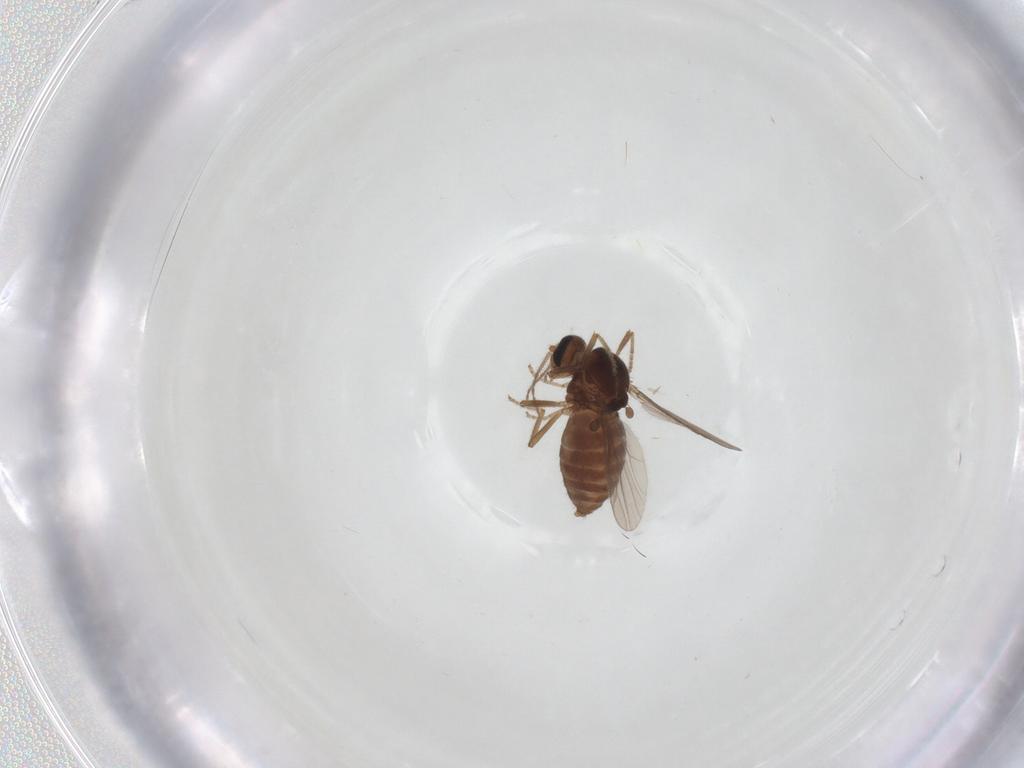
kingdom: Animalia
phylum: Arthropoda
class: Insecta
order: Diptera
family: Ceratopogonidae
